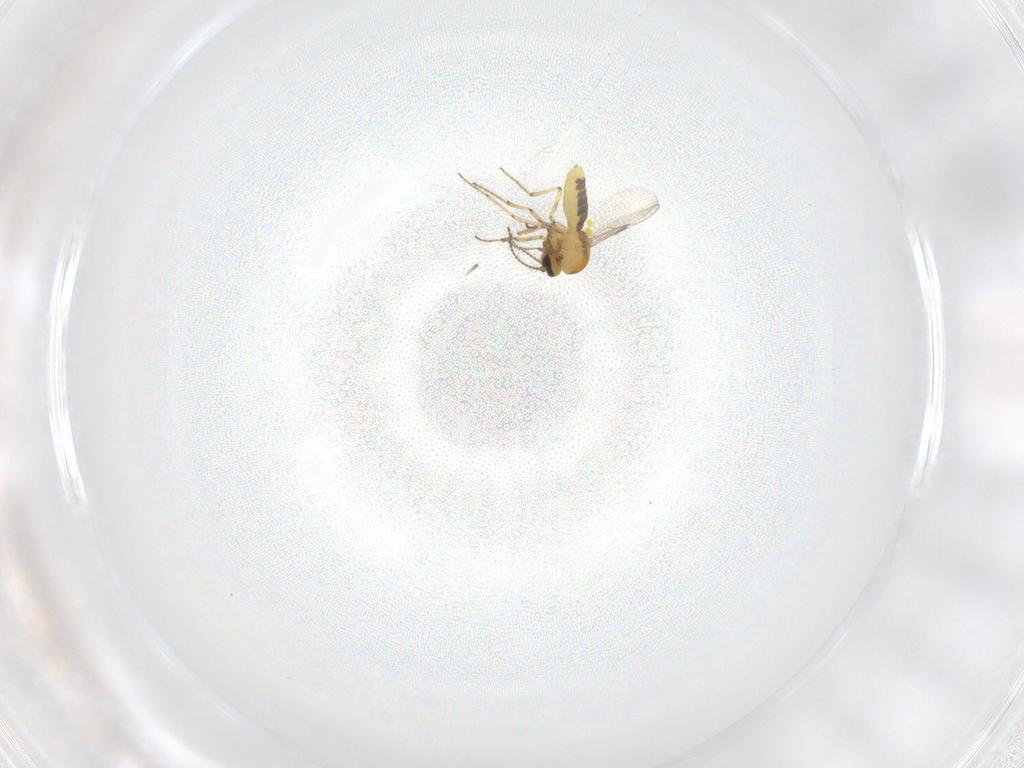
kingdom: Animalia
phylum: Arthropoda
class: Insecta
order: Diptera
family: Ceratopogonidae
